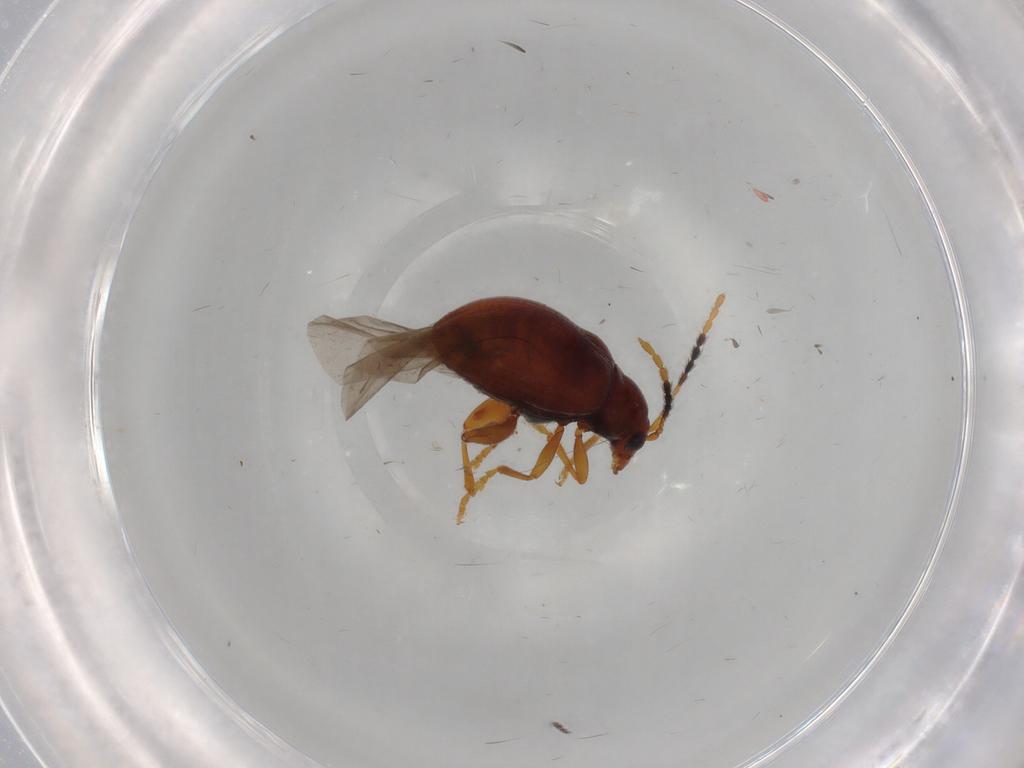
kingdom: Animalia
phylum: Arthropoda
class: Insecta
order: Coleoptera
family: Chrysomelidae
